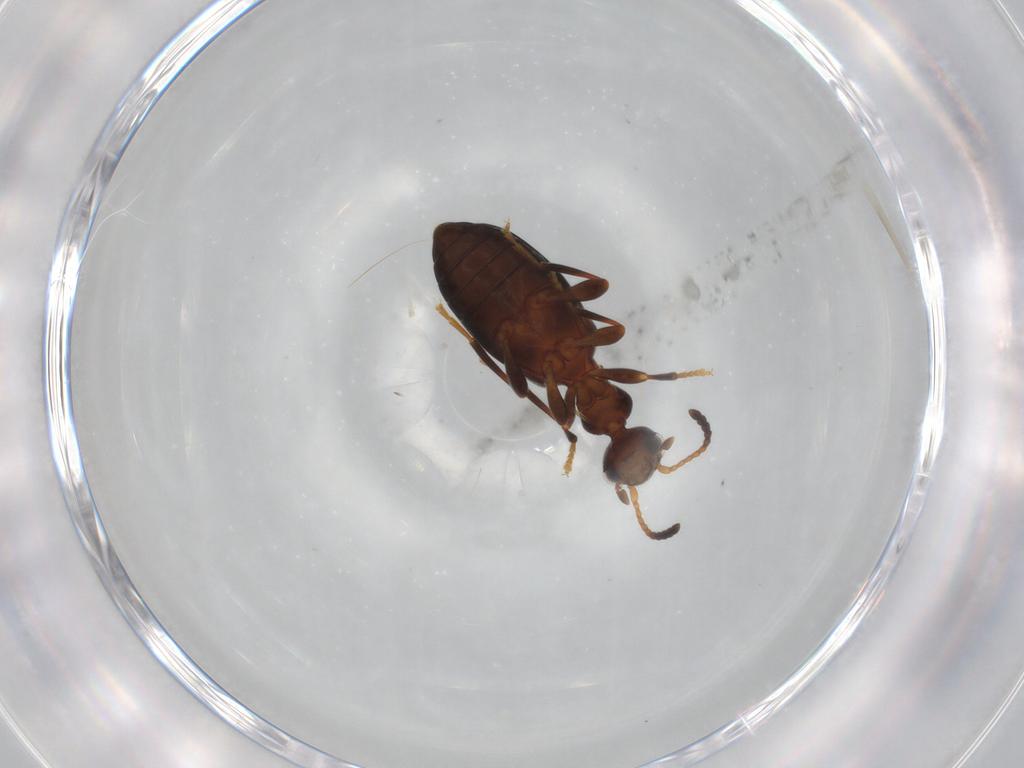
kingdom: Animalia
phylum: Arthropoda
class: Insecta
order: Coleoptera
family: Anthicidae
